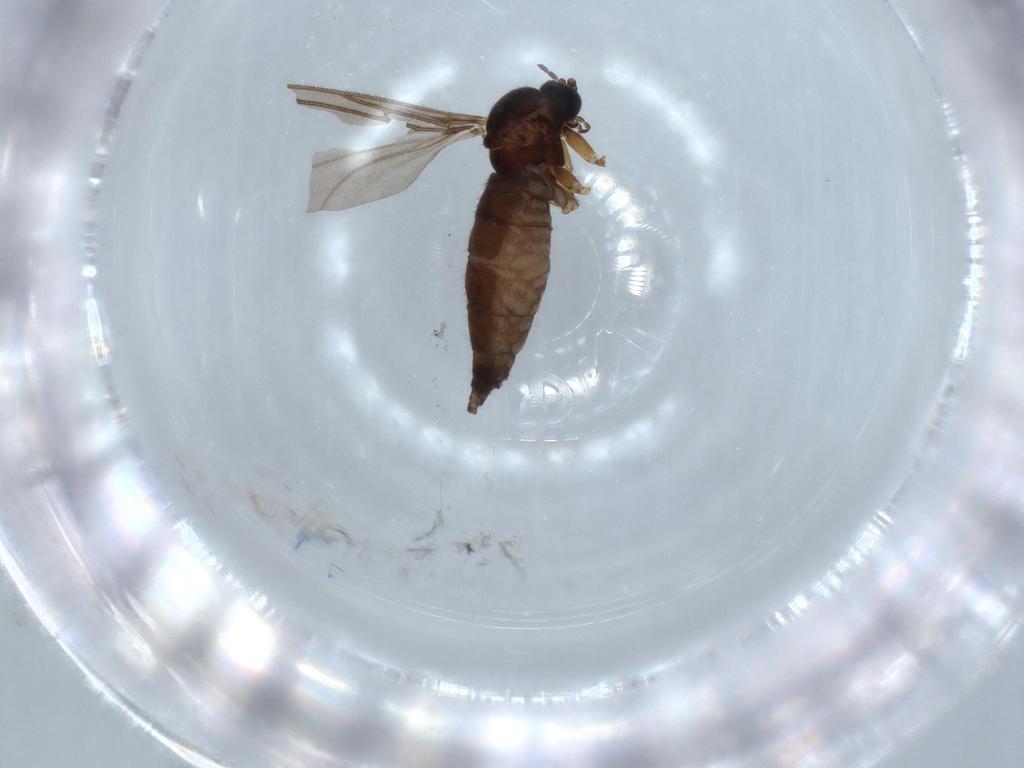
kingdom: Animalia
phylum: Arthropoda
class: Insecta
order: Diptera
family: Sciaridae
